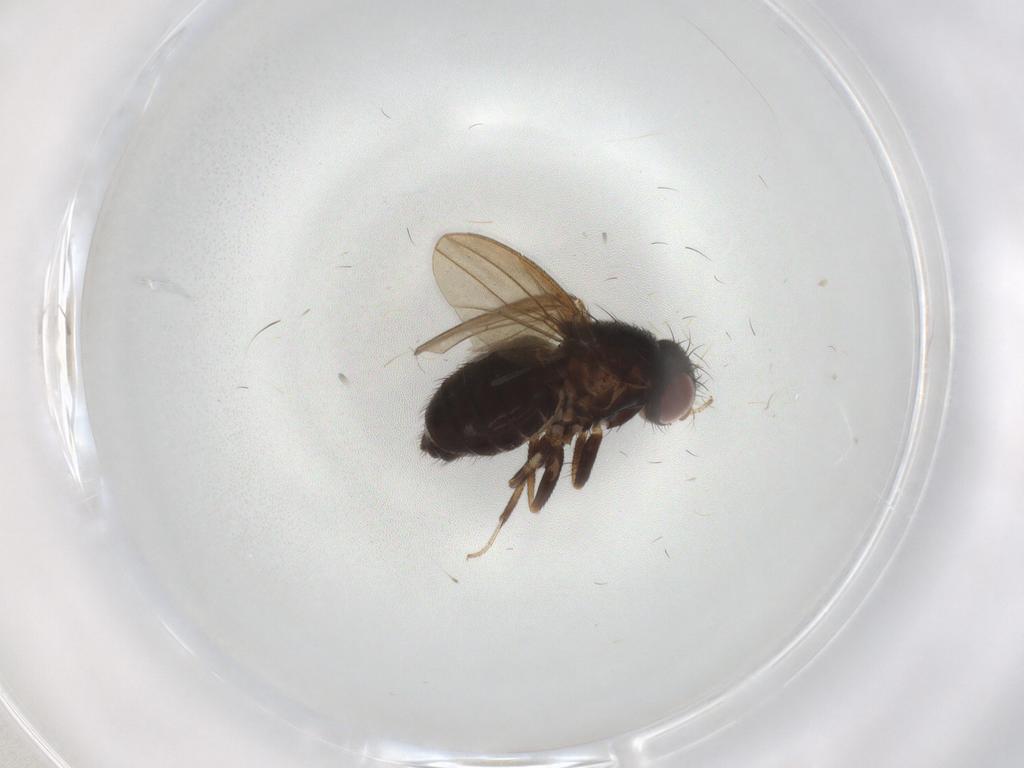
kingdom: Animalia
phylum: Arthropoda
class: Insecta
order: Diptera
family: Drosophilidae
